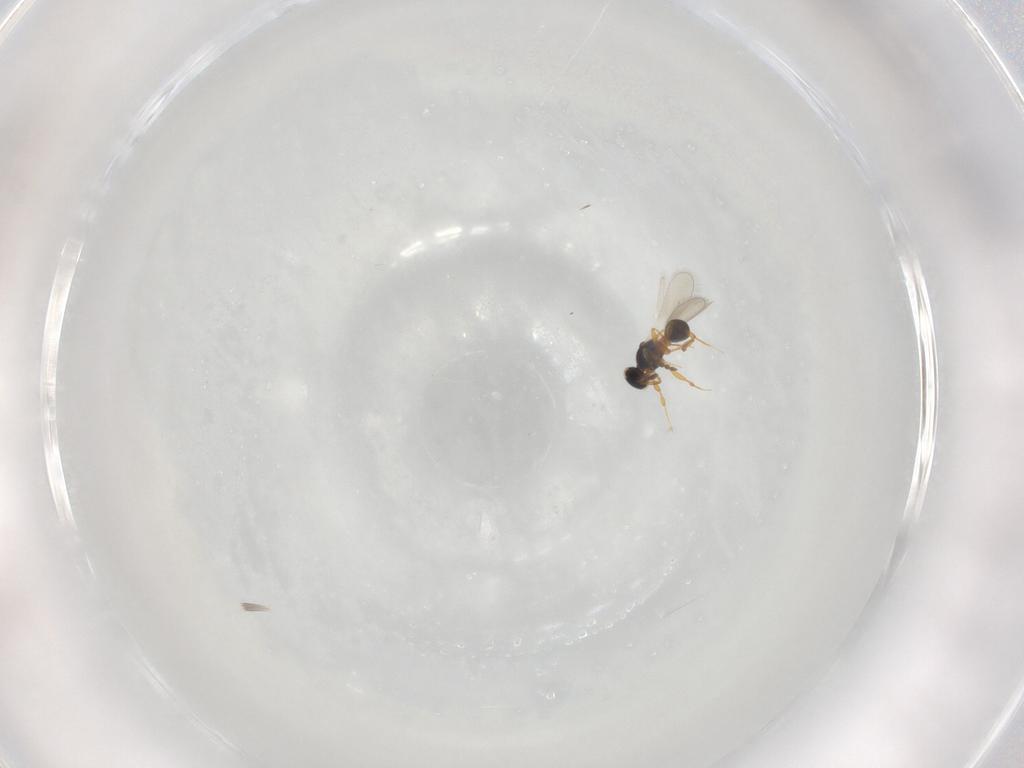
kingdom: Animalia
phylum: Arthropoda
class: Insecta
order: Hymenoptera
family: Platygastridae
